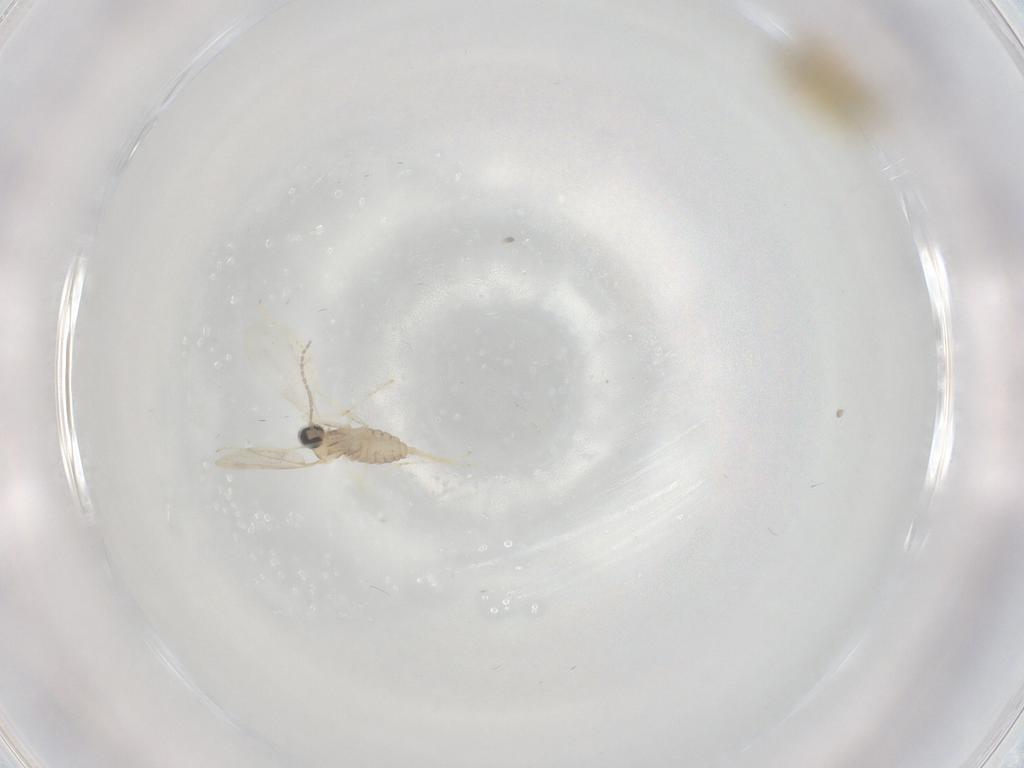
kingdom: Animalia
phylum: Arthropoda
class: Insecta
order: Diptera
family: Ceratopogonidae
